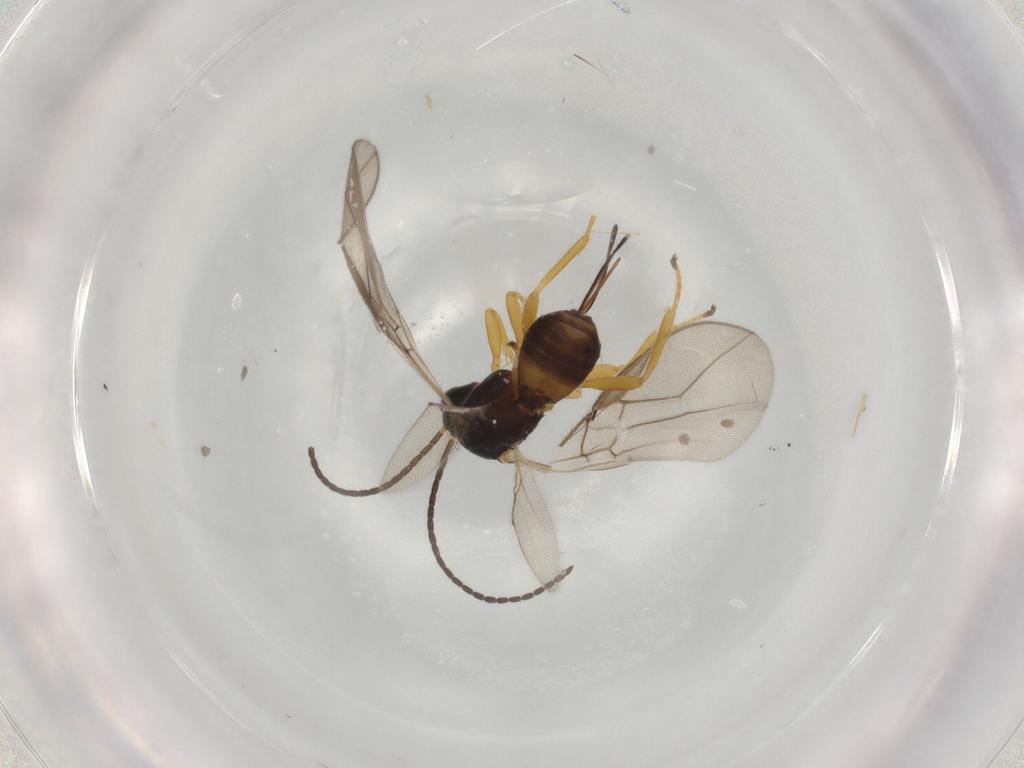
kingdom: Animalia
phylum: Arthropoda
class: Insecta
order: Hymenoptera
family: Braconidae
